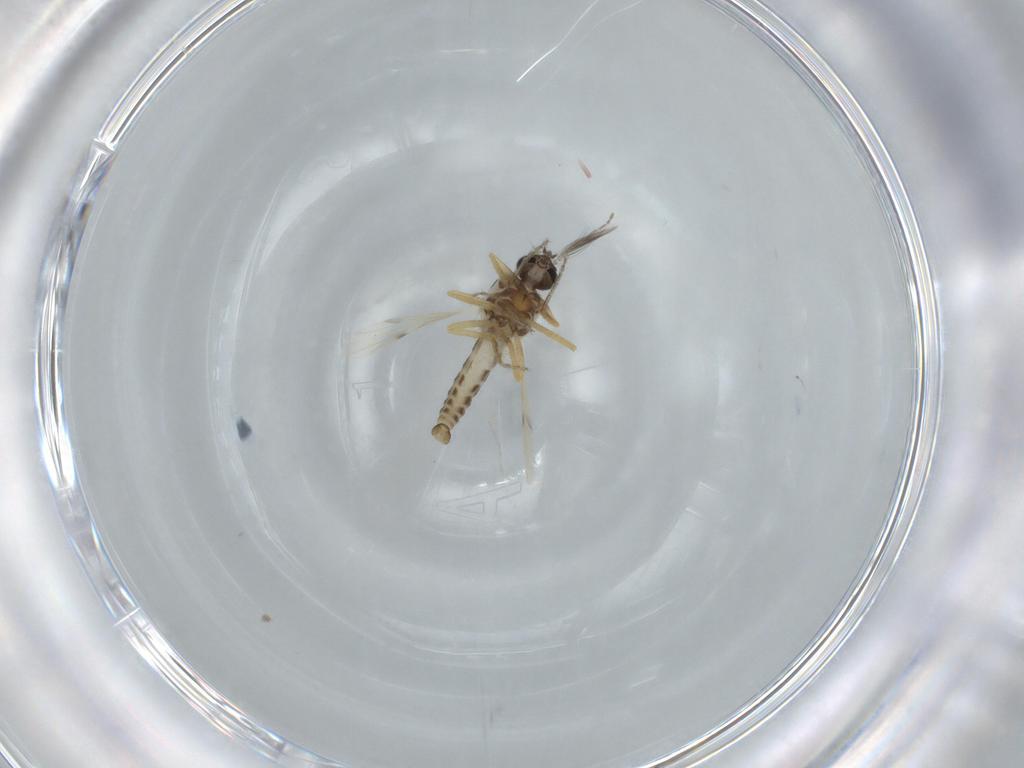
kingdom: Animalia
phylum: Arthropoda
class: Insecta
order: Diptera
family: Ceratopogonidae
